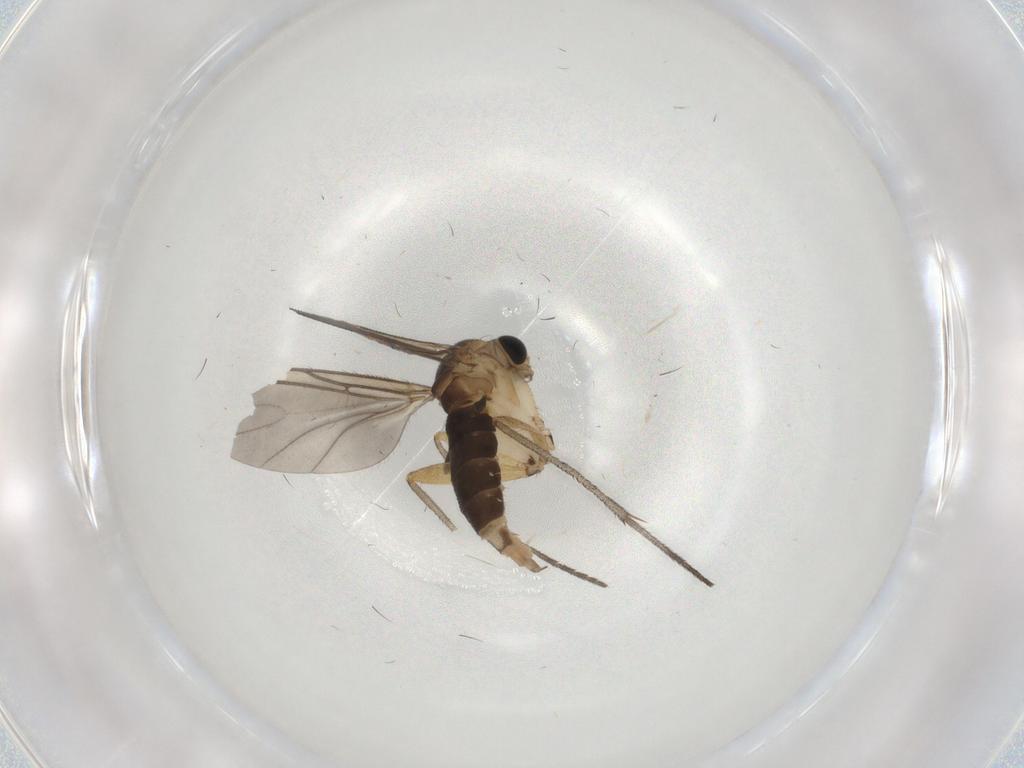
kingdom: Animalia
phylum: Arthropoda
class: Insecta
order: Diptera
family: Sciaridae
